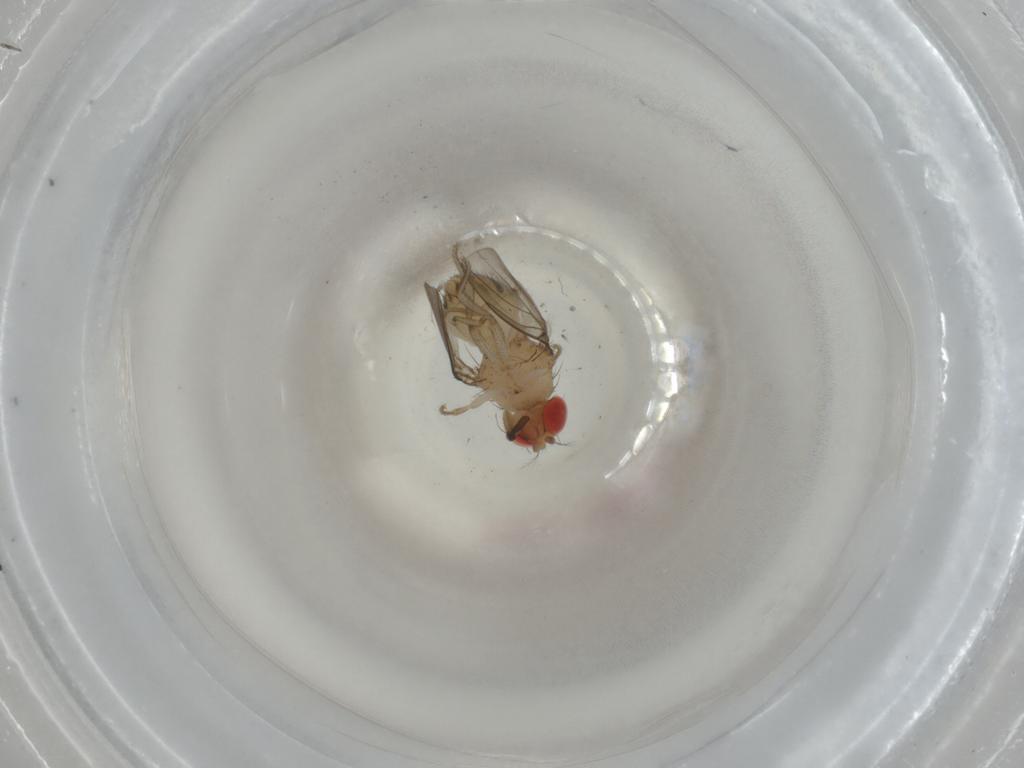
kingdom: Animalia
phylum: Arthropoda
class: Insecta
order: Diptera
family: Drosophilidae
